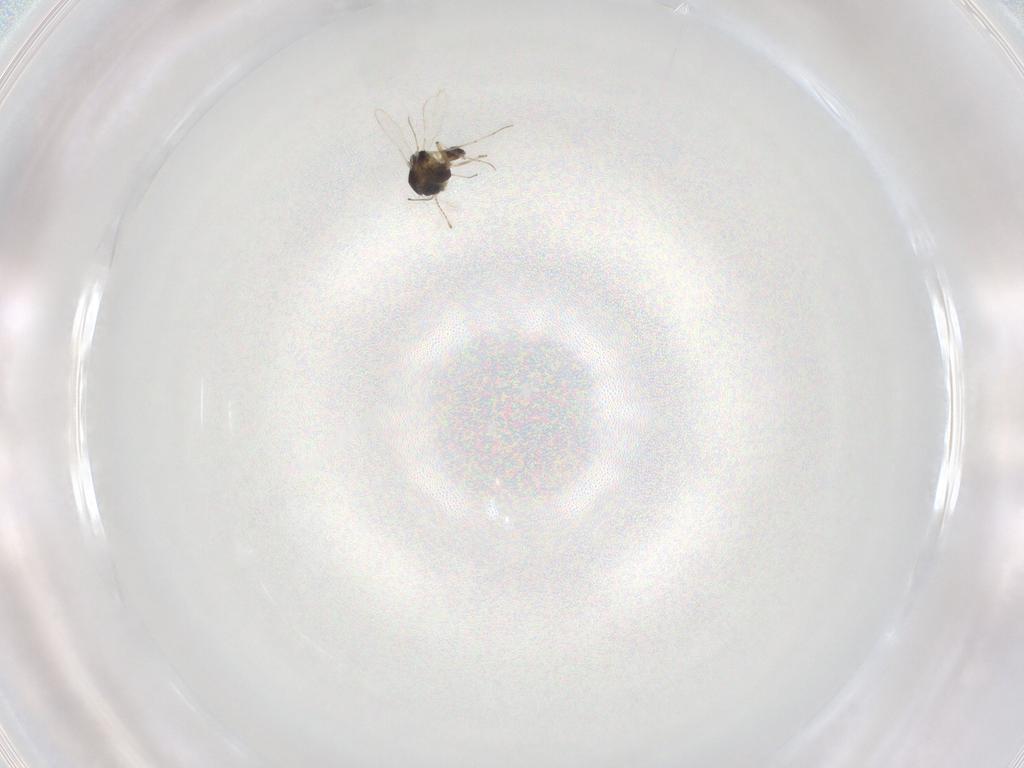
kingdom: Animalia
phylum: Arthropoda
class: Insecta
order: Diptera
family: Chironomidae
